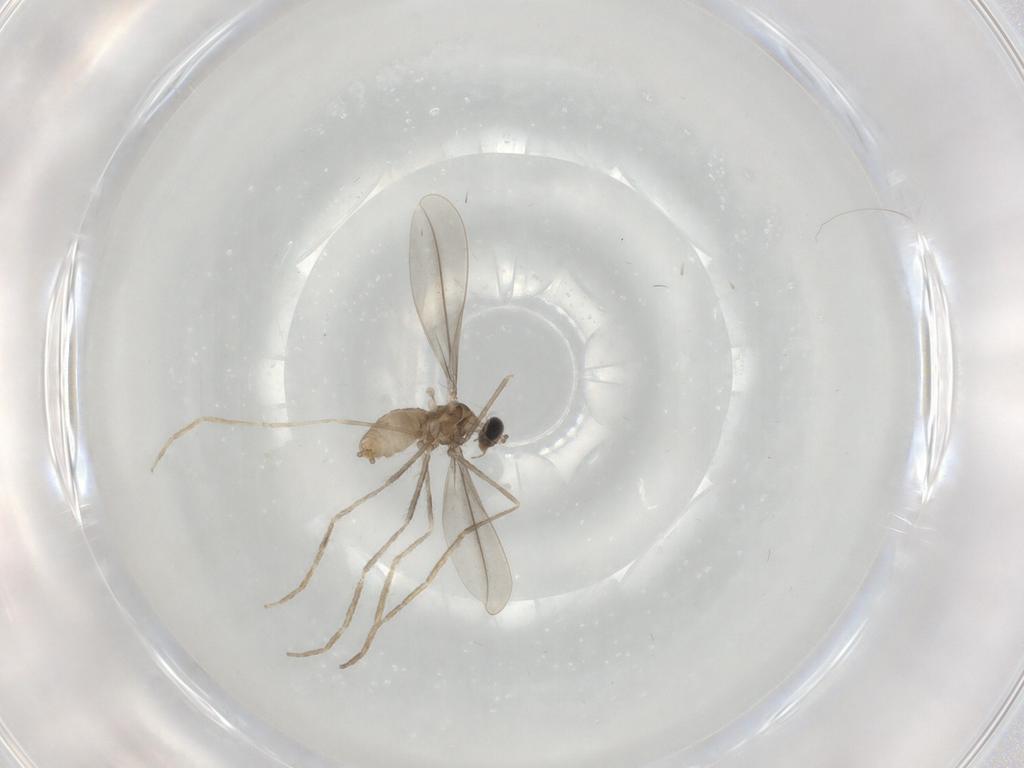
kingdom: Animalia
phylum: Arthropoda
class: Insecta
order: Diptera
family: Cecidomyiidae
